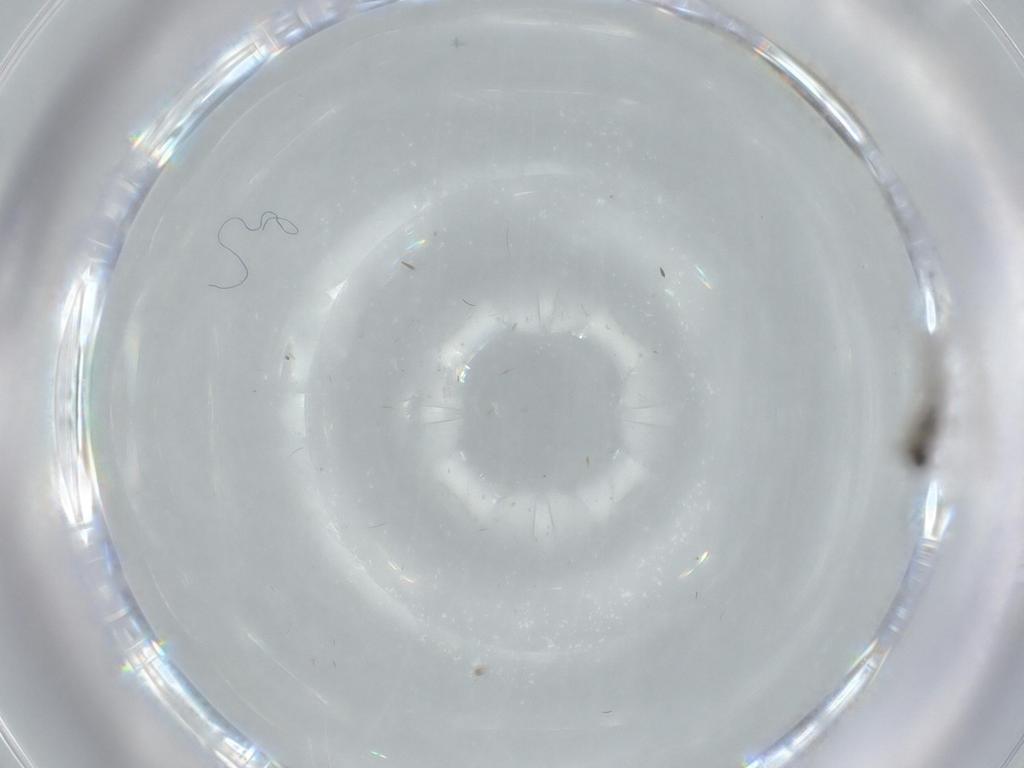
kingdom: Animalia
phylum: Arthropoda
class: Insecta
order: Diptera
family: Cecidomyiidae
